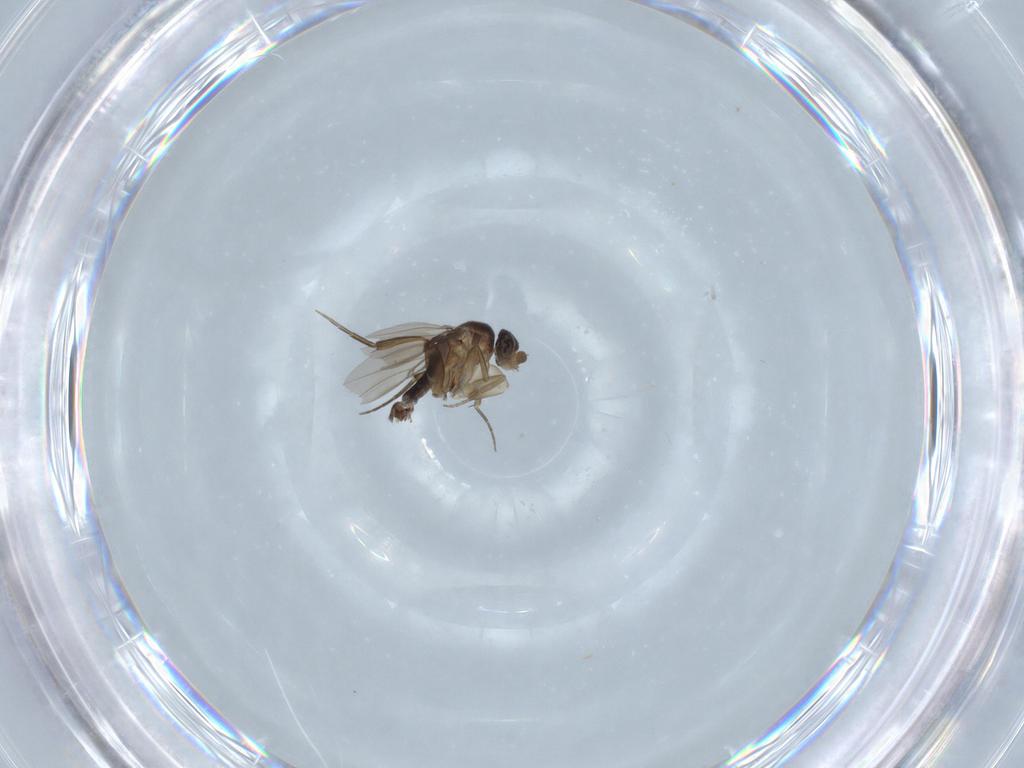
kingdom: Animalia
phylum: Arthropoda
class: Insecta
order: Diptera
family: Phoridae
